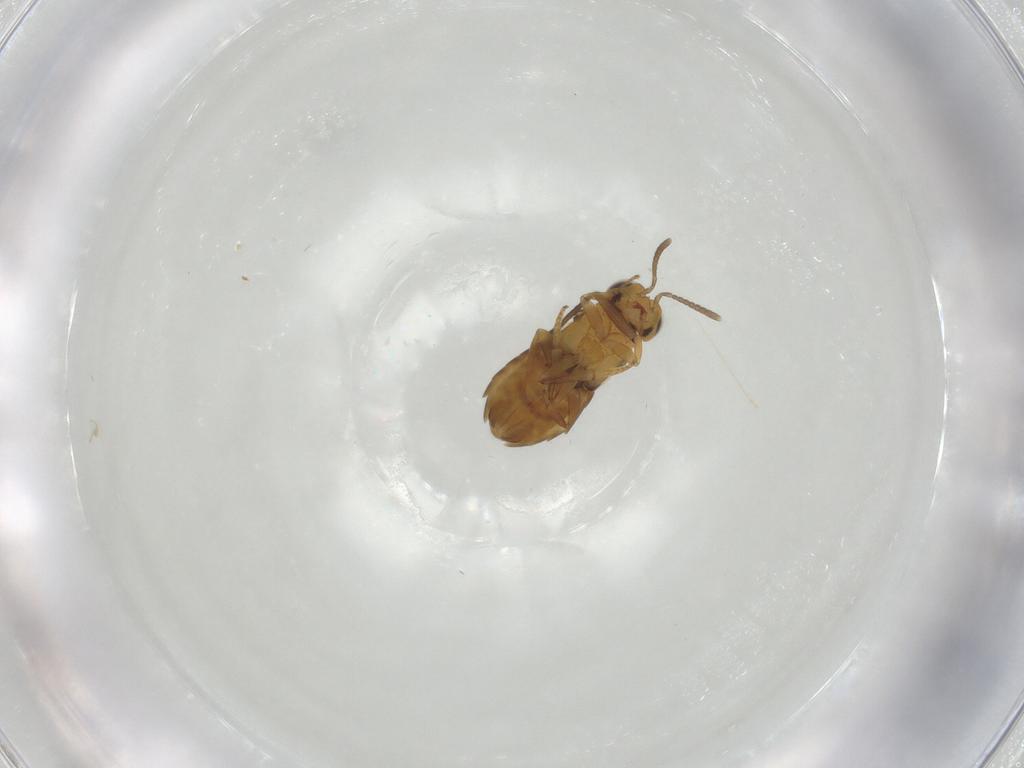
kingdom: Animalia
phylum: Arthropoda
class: Insecta
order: Hymenoptera
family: Encyrtidae
